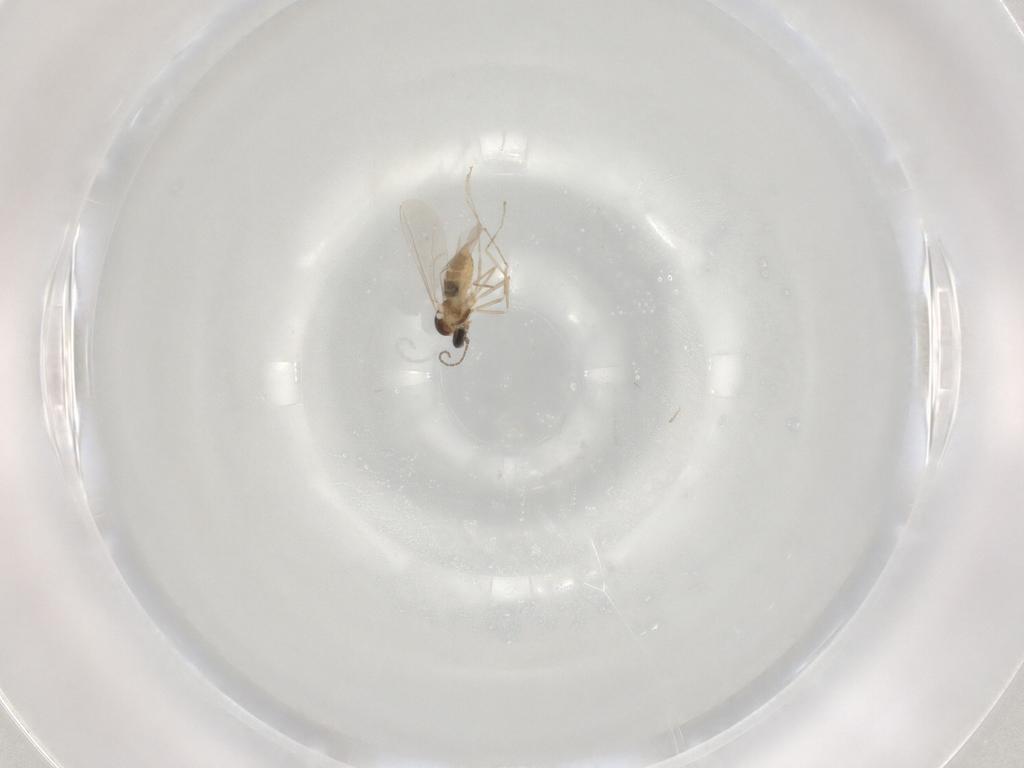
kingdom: Animalia
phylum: Arthropoda
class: Insecta
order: Diptera
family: Cecidomyiidae
